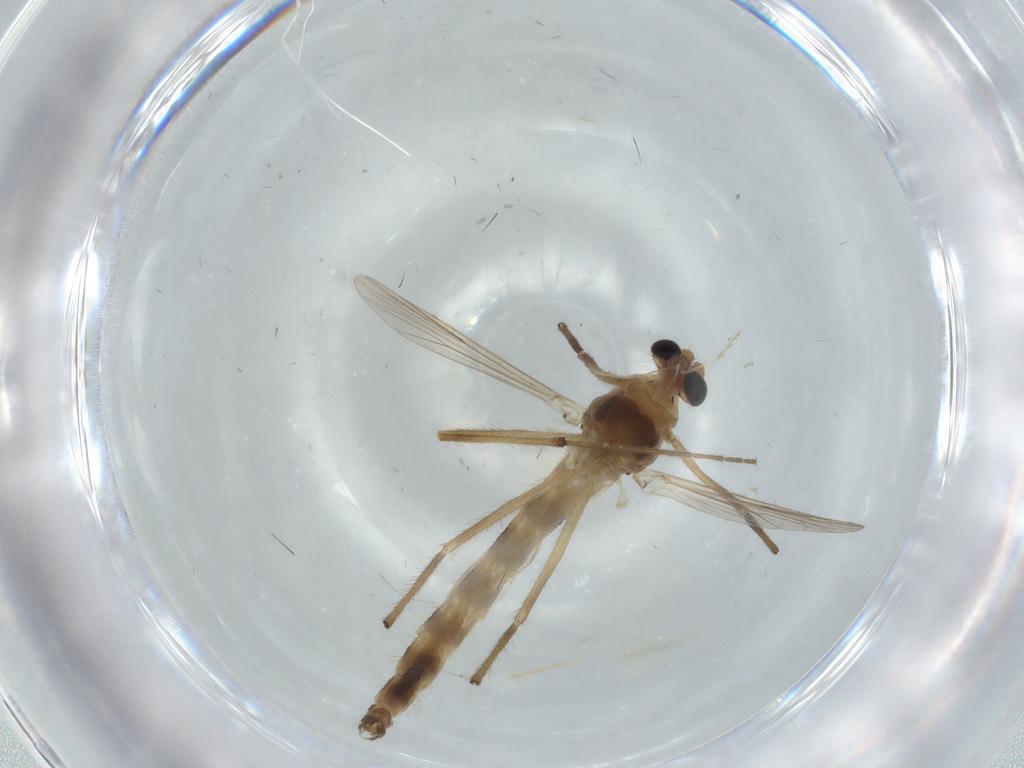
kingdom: Animalia
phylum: Arthropoda
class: Insecta
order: Diptera
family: Chironomidae
